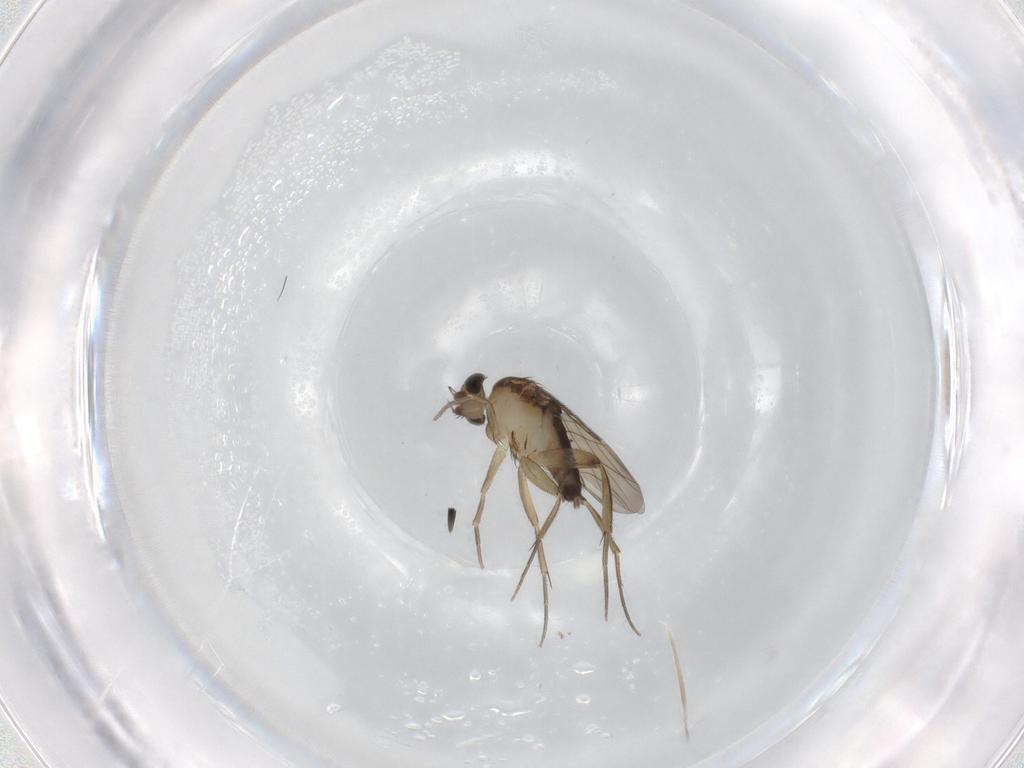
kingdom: Animalia
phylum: Arthropoda
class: Insecta
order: Diptera
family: Phoridae
